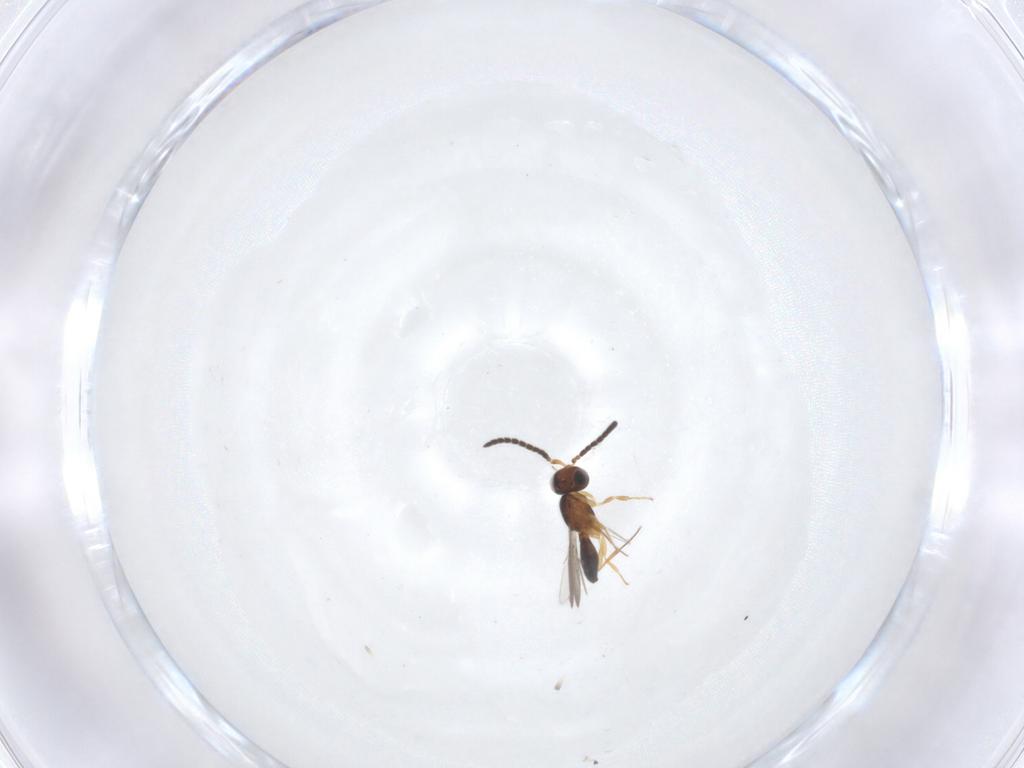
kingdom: Animalia
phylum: Arthropoda
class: Insecta
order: Hymenoptera
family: Scelionidae
